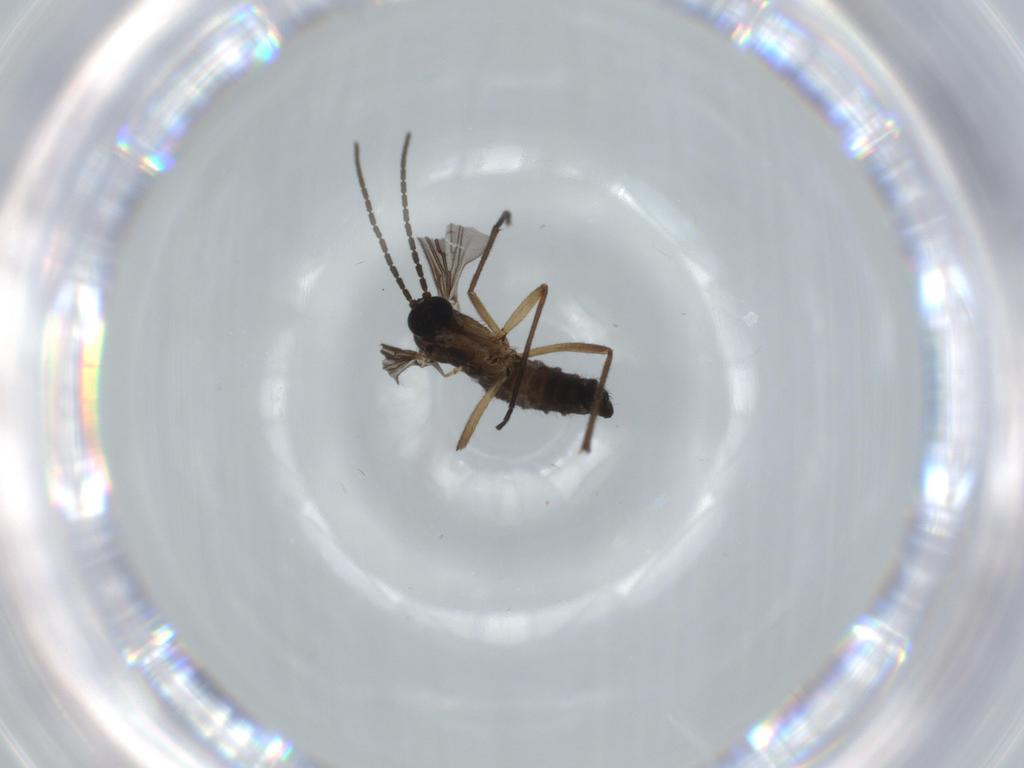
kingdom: Animalia
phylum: Arthropoda
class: Insecta
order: Diptera
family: Sciaridae
